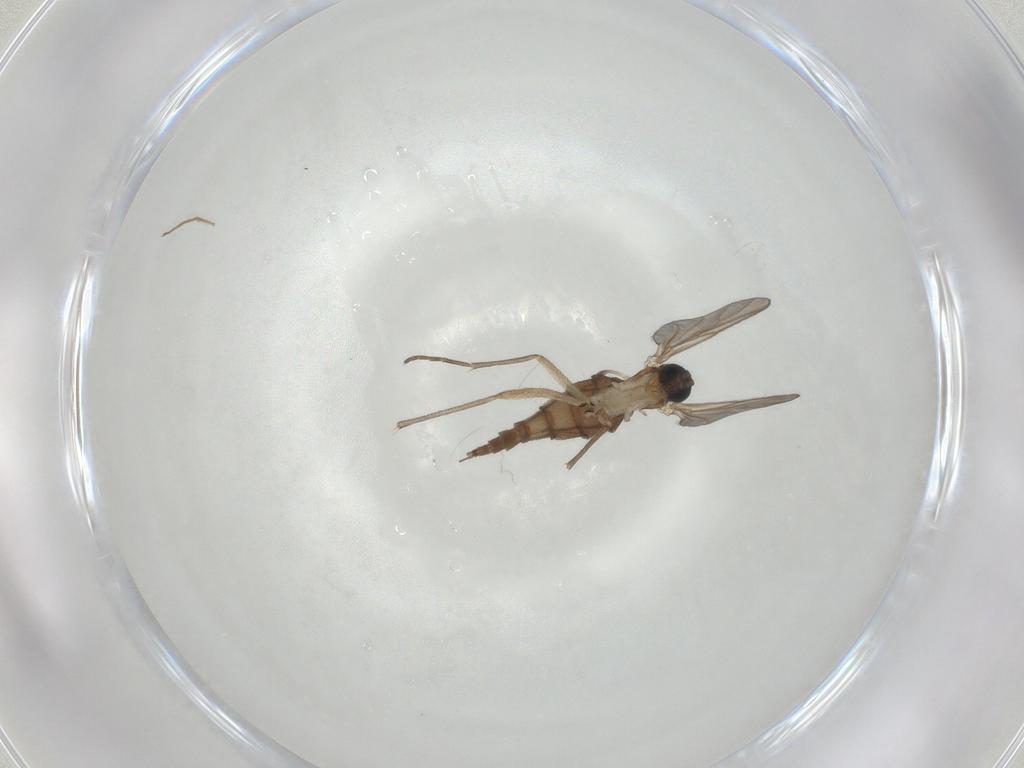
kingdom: Animalia
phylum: Arthropoda
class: Insecta
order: Diptera
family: Sciaridae
